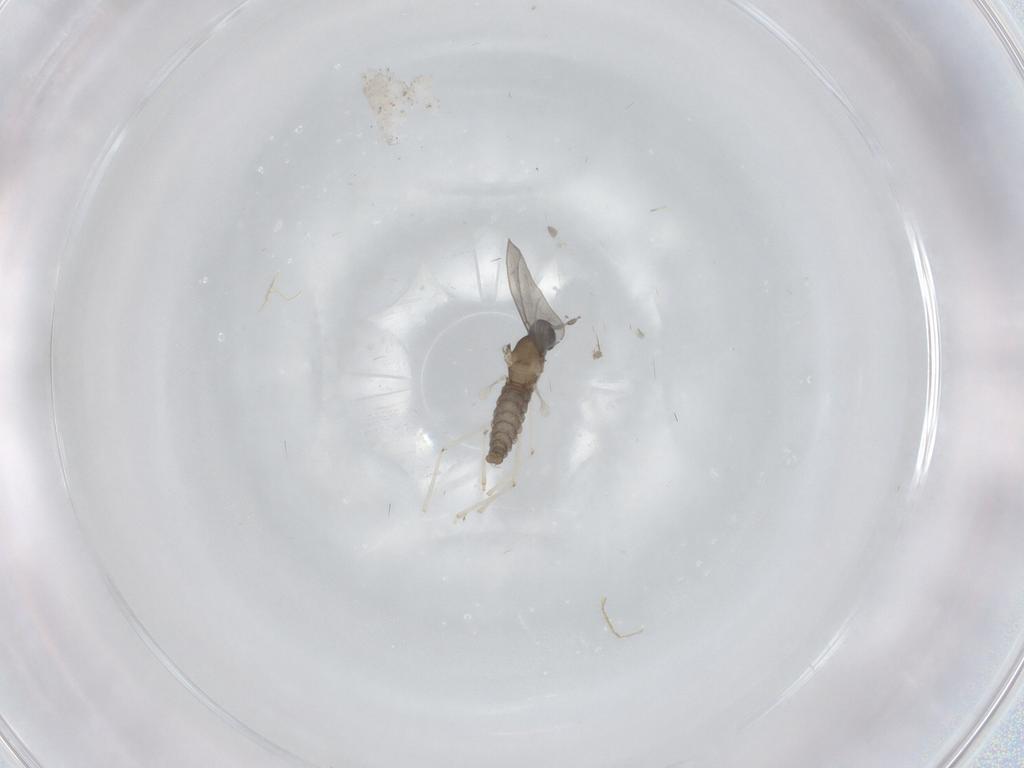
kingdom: Animalia
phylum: Arthropoda
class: Insecta
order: Diptera
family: Cecidomyiidae
